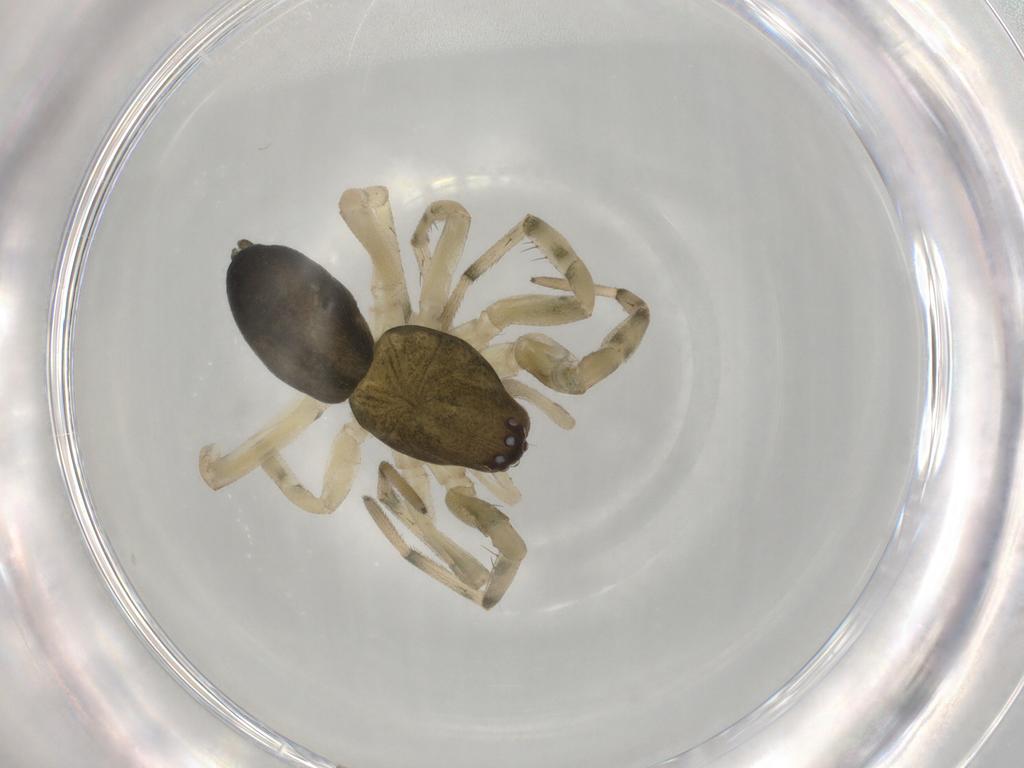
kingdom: Animalia
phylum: Arthropoda
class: Arachnida
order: Araneae
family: Trachelidae
